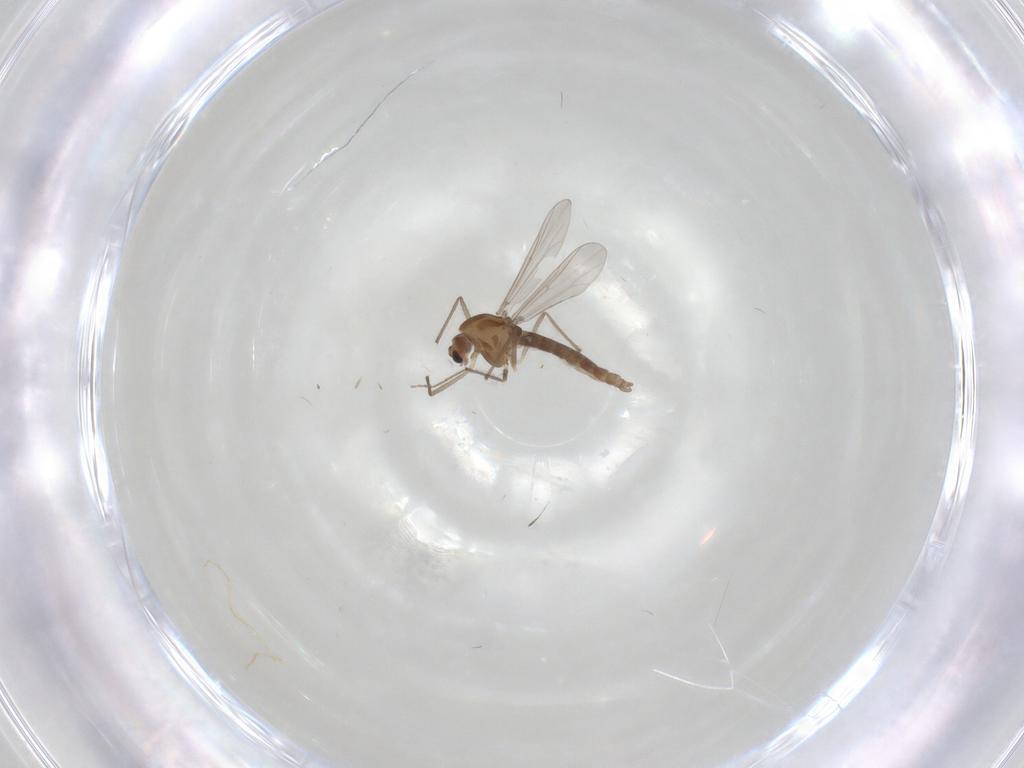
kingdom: Animalia
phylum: Arthropoda
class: Insecta
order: Diptera
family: Chironomidae
